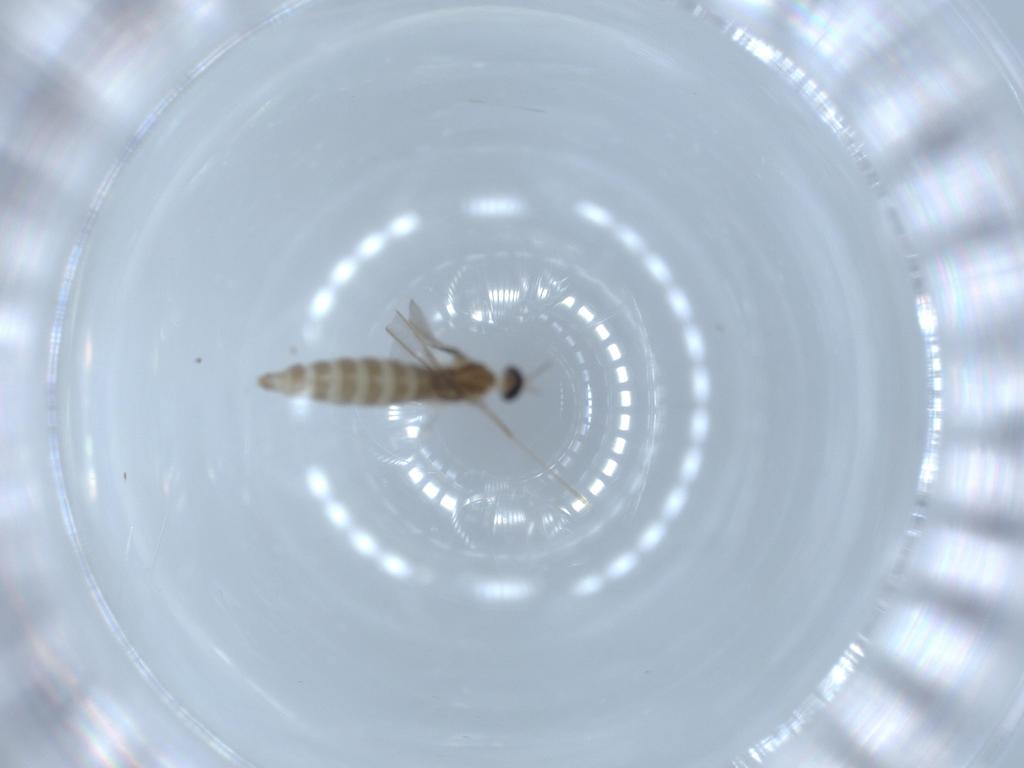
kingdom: Animalia
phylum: Arthropoda
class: Insecta
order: Diptera
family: Cecidomyiidae
